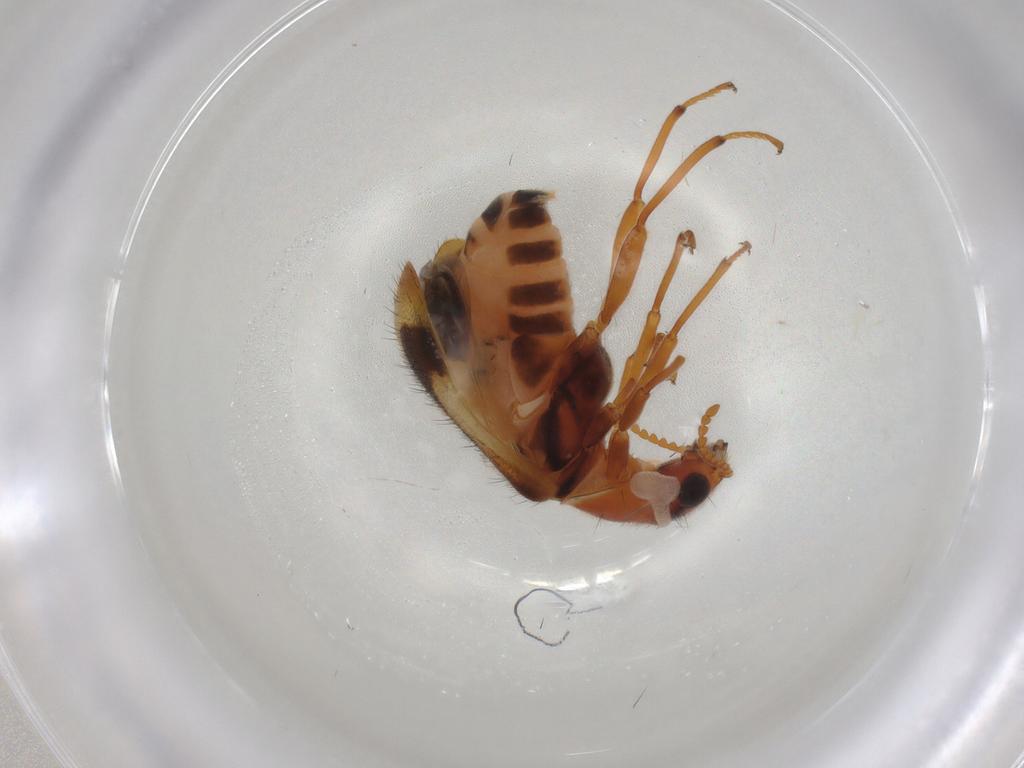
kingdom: Animalia
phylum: Arthropoda
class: Insecta
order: Coleoptera
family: Melyridae
